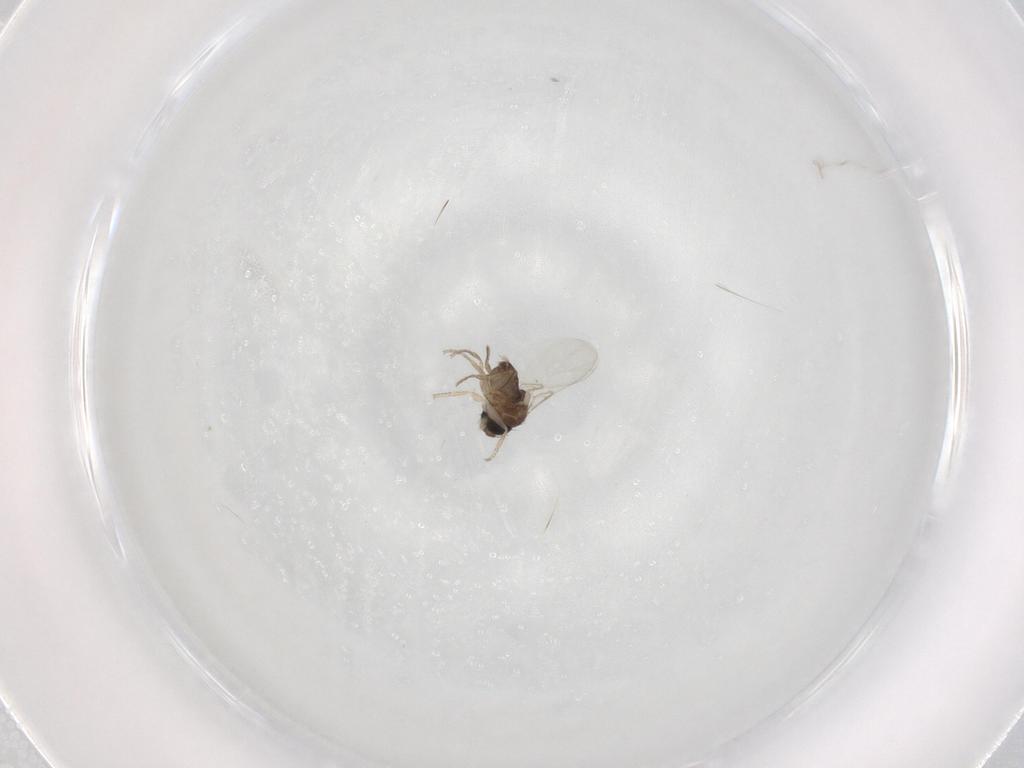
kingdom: Animalia
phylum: Arthropoda
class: Insecta
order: Diptera
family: Phoridae
